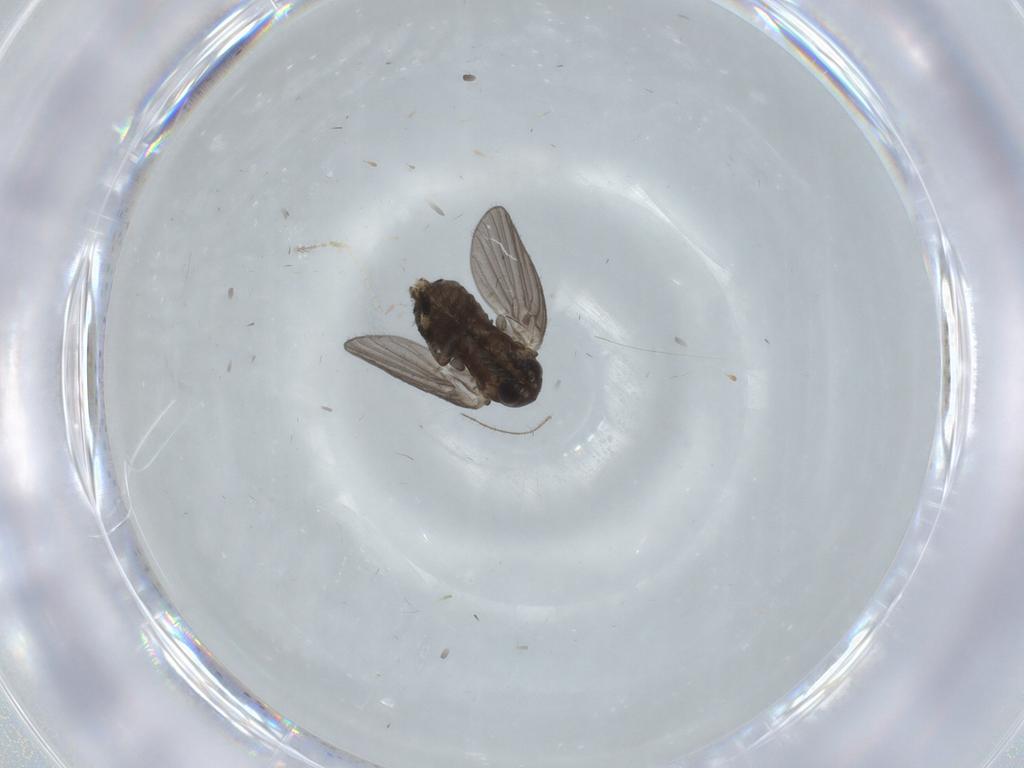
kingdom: Animalia
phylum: Arthropoda
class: Insecta
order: Diptera
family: Psychodidae
